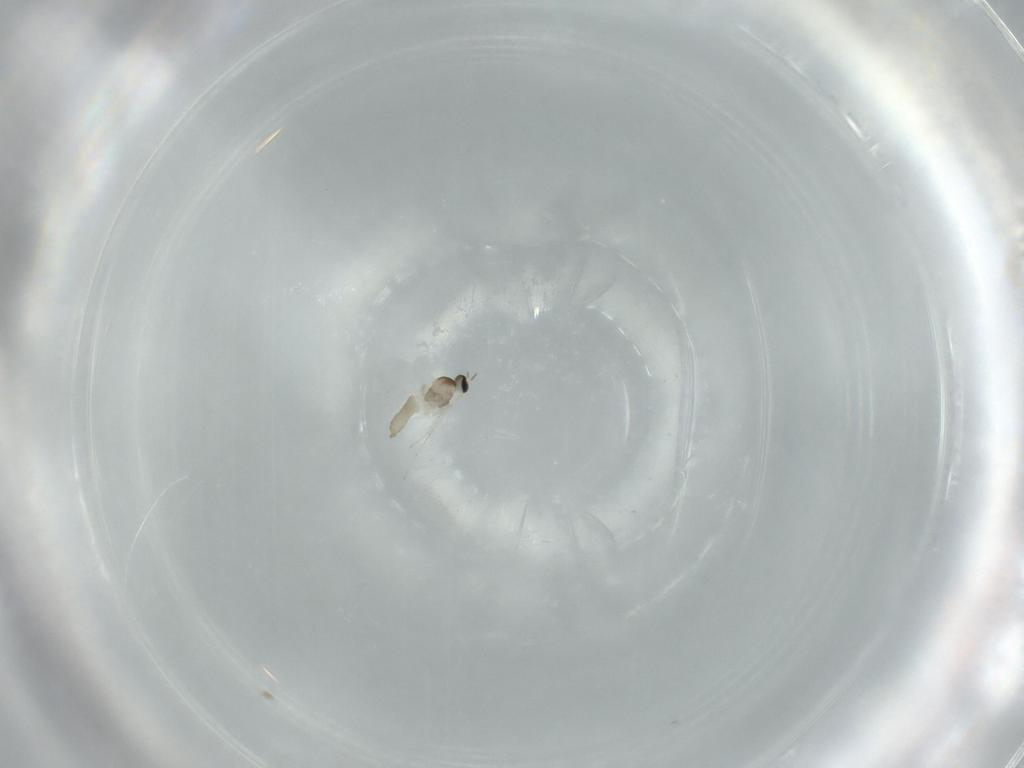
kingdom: Animalia
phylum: Arthropoda
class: Insecta
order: Diptera
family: Cecidomyiidae
